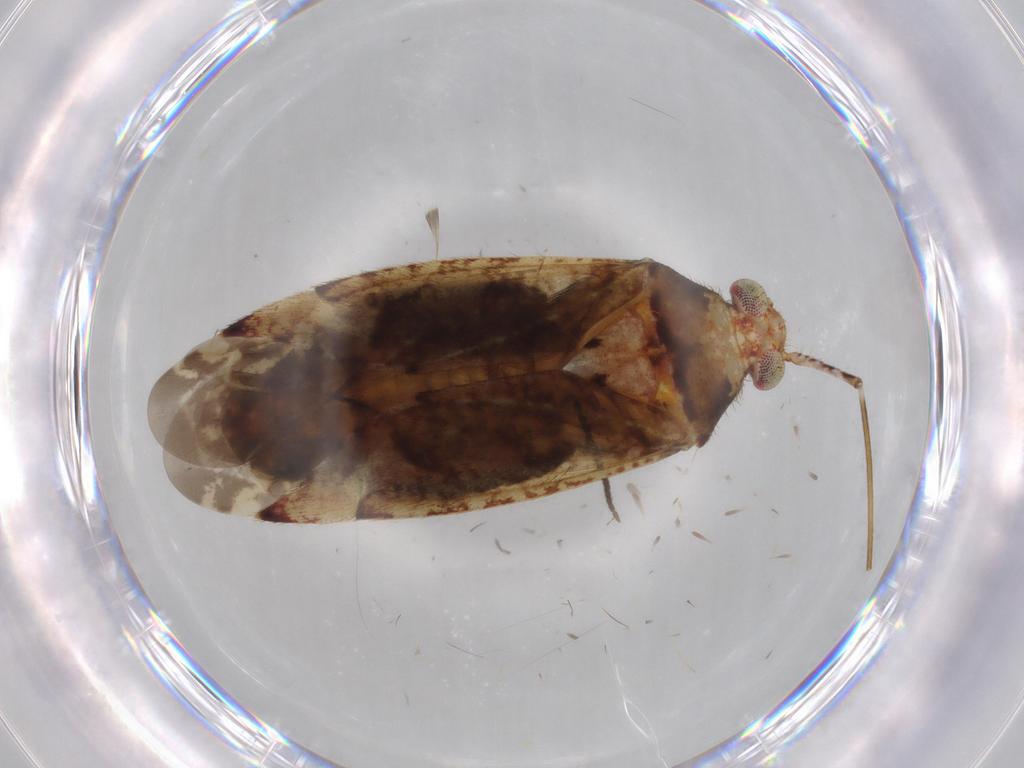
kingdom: Animalia
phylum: Arthropoda
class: Insecta
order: Hemiptera
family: Miridae
